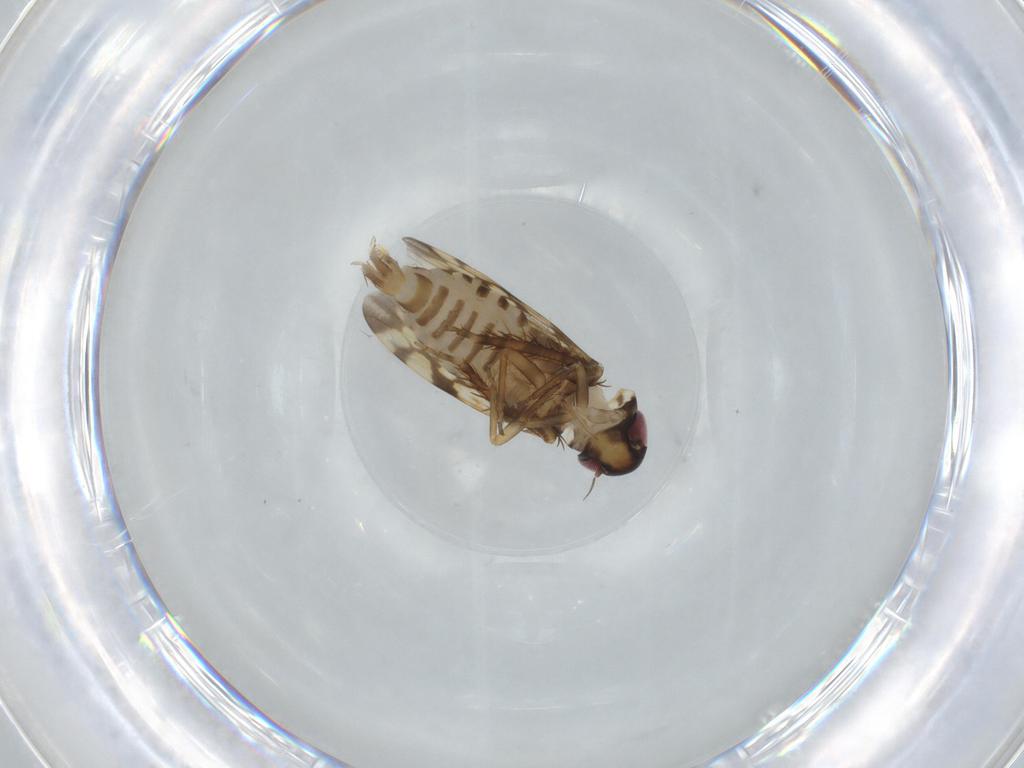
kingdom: Animalia
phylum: Arthropoda
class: Insecta
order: Hemiptera
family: Cicadellidae
